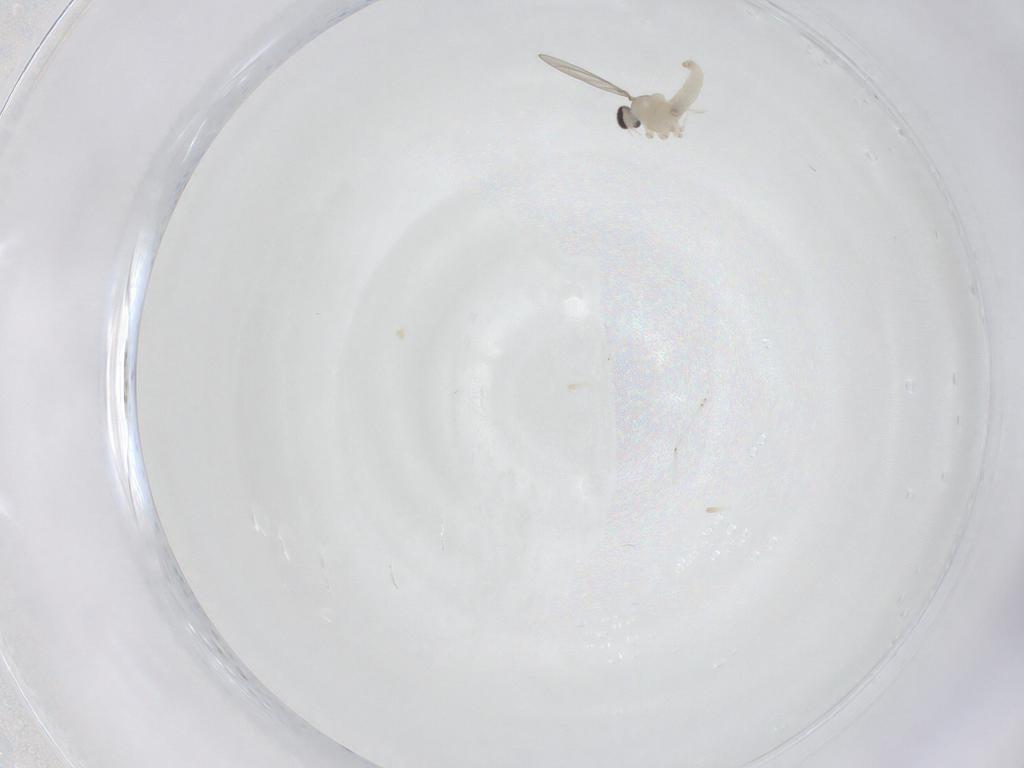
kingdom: Animalia
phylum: Arthropoda
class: Insecta
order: Diptera
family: Cecidomyiidae
